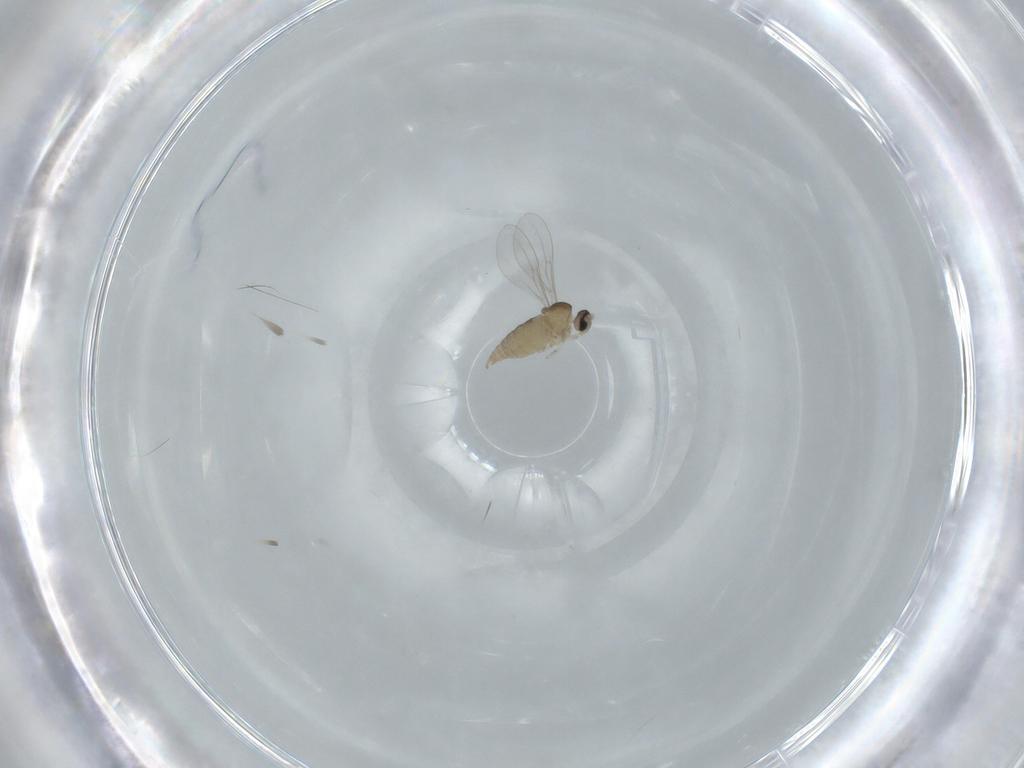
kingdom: Animalia
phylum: Arthropoda
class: Insecta
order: Diptera
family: Cecidomyiidae
